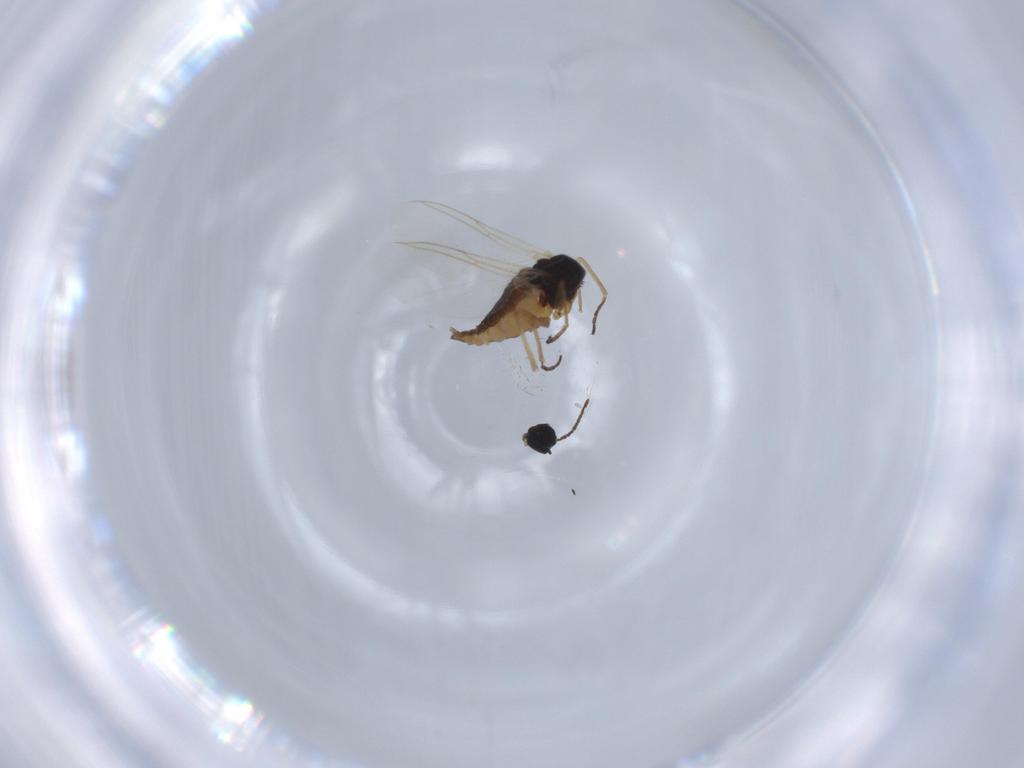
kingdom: Animalia
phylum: Arthropoda
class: Insecta
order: Diptera
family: Sciaridae
